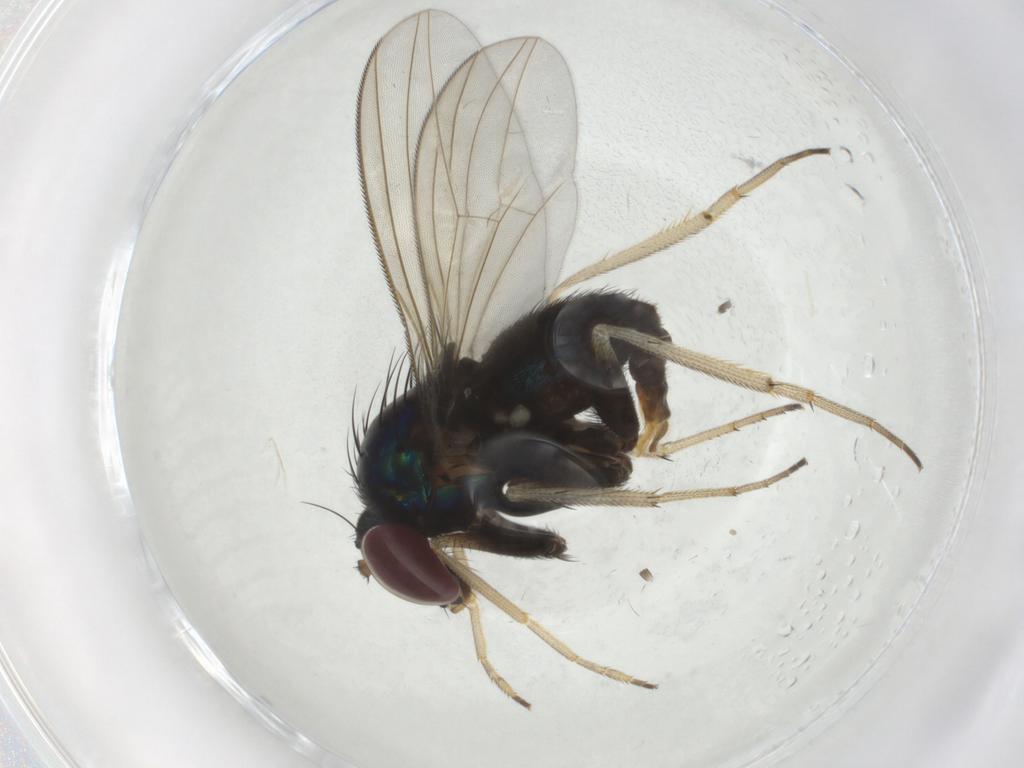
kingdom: Animalia
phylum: Arthropoda
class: Insecta
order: Diptera
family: Dolichopodidae
